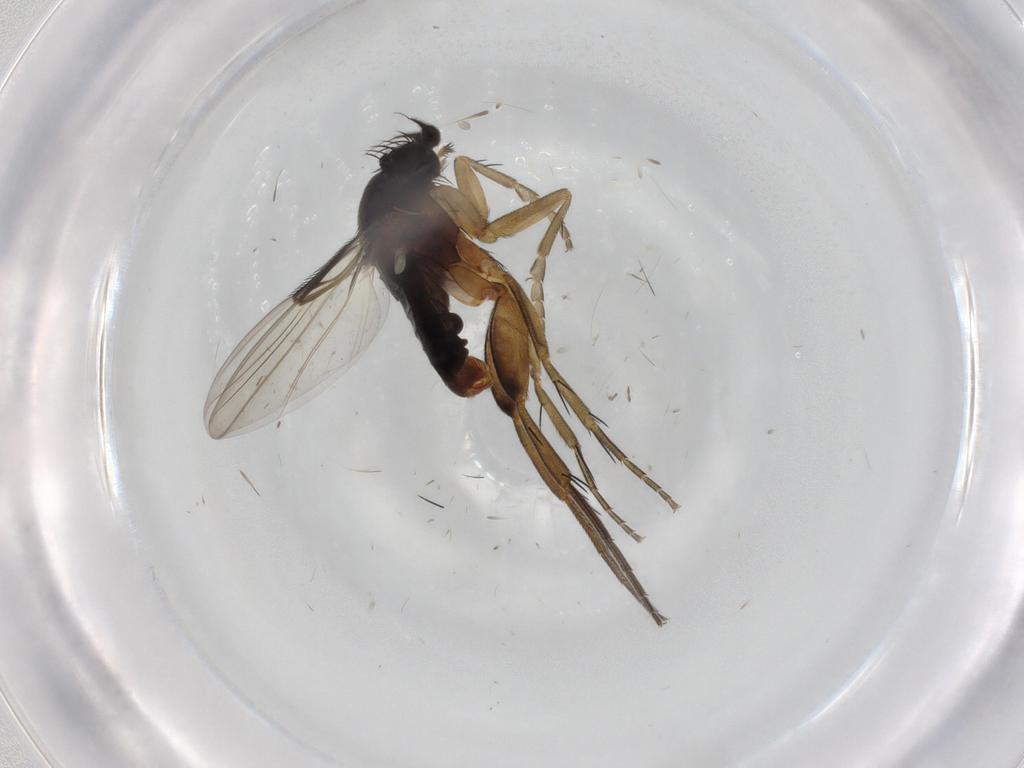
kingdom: Animalia
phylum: Arthropoda
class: Insecta
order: Diptera
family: Phoridae
